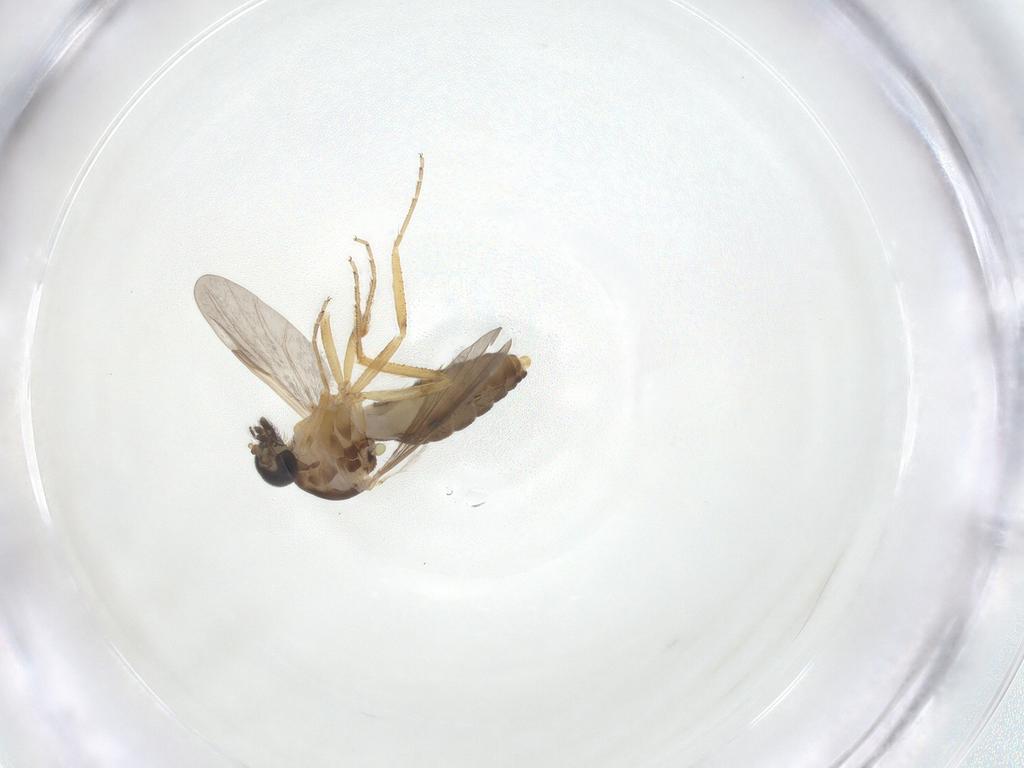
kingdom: Animalia
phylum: Arthropoda
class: Insecta
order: Diptera
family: Ceratopogonidae
